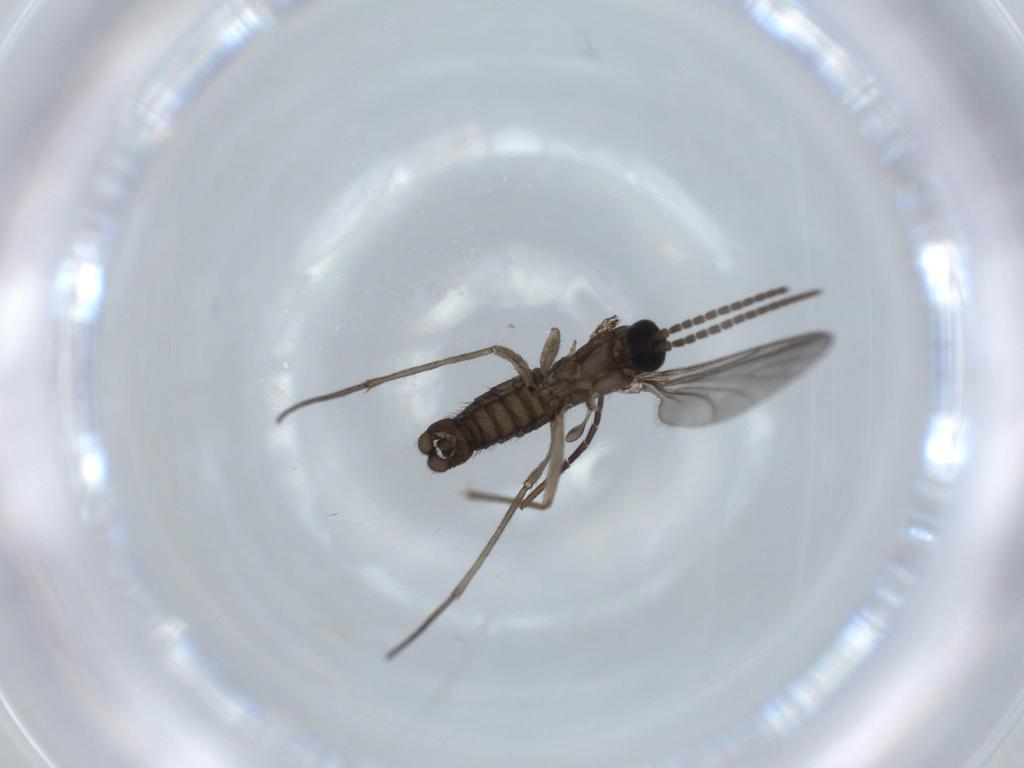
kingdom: Animalia
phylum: Arthropoda
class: Insecta
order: Diptera
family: Sciaridae
